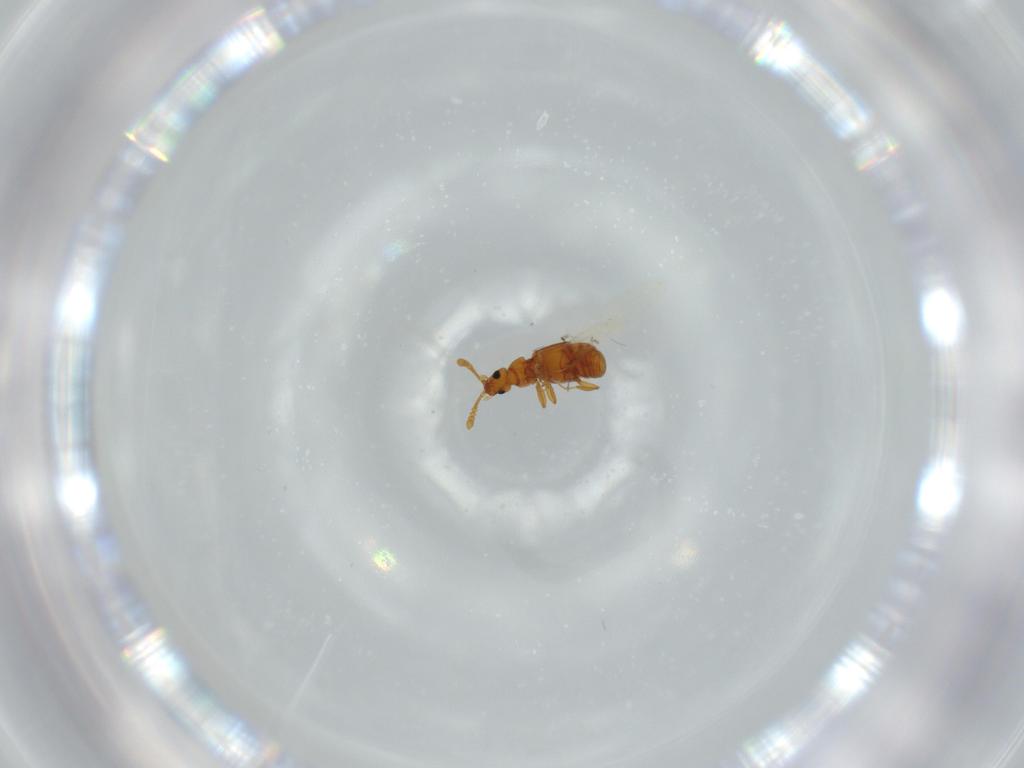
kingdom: Animalia
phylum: Arthropoda
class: Insecta
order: Coleoptera
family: Staphylinidae
